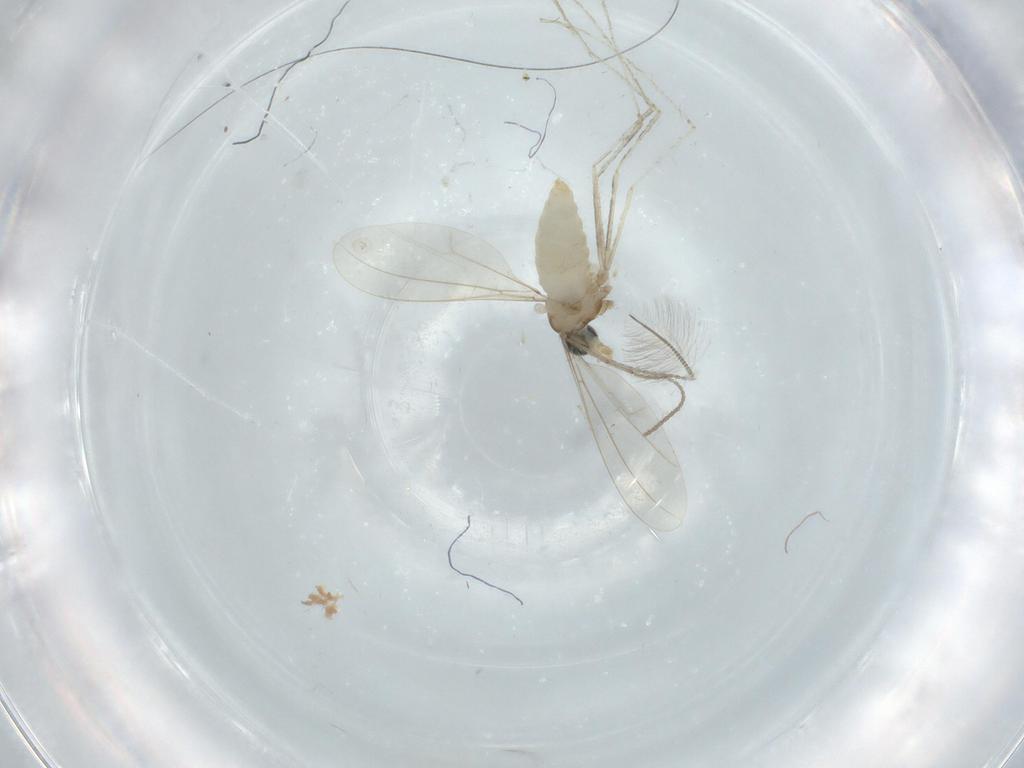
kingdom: Animalia
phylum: Arthropoda
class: Insecta
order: Diptera
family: Cecidomyiidae
